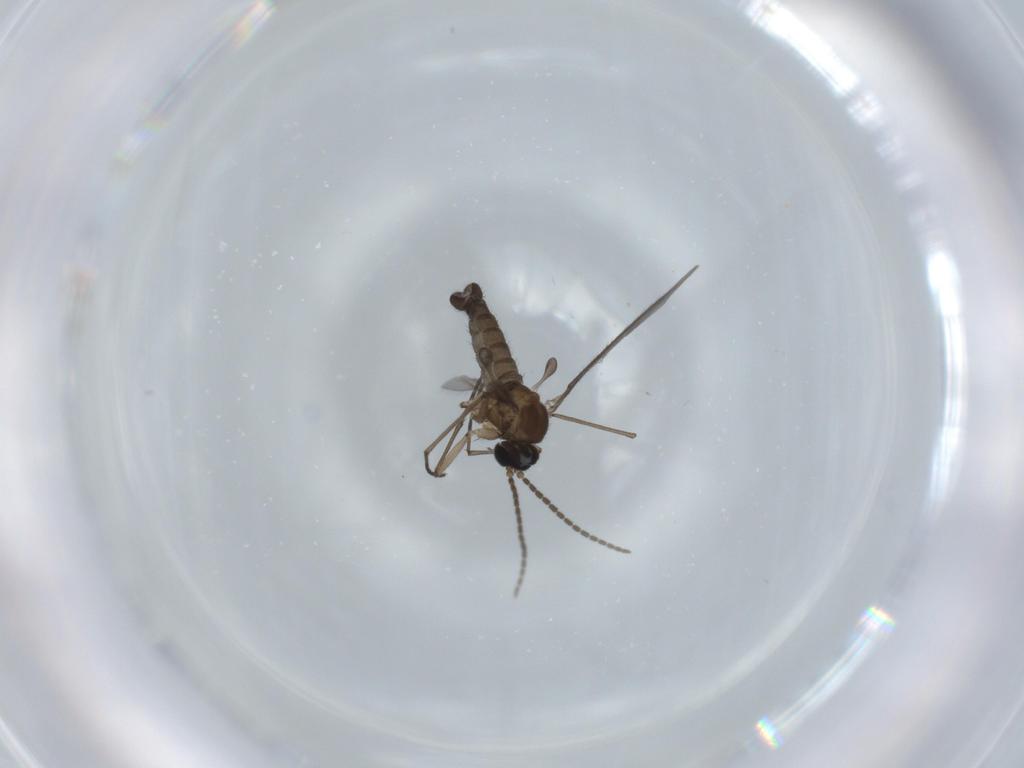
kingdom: Animalia
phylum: Arthropoda
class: Insecta
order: Diptera
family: Sciaridae
